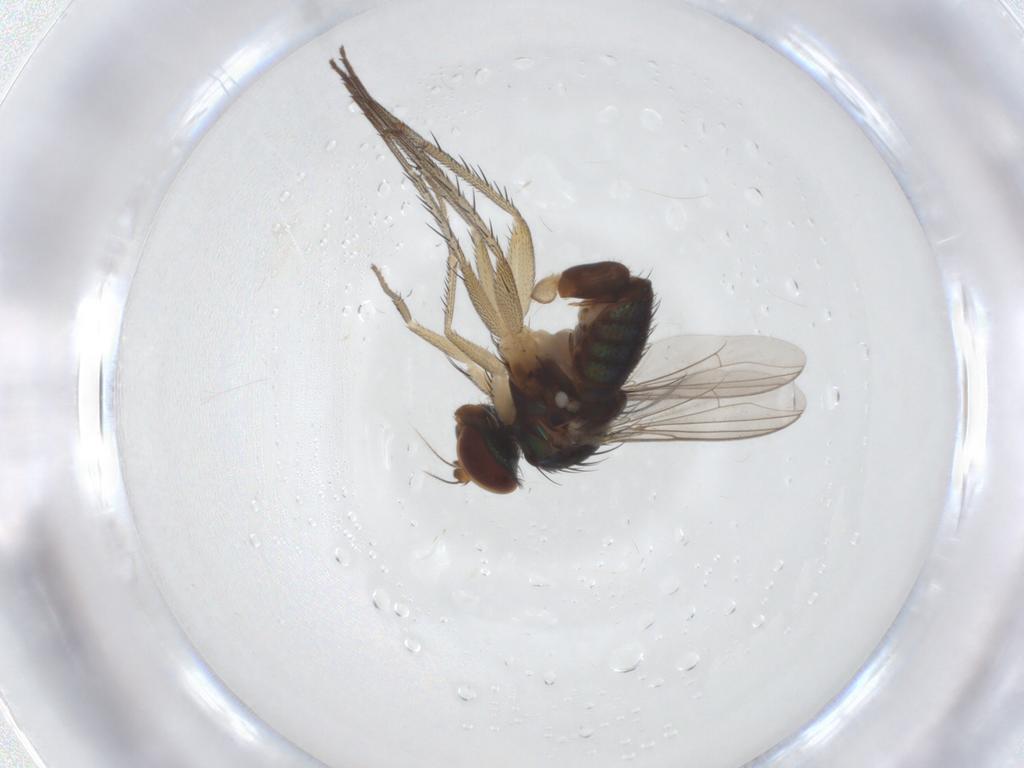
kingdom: Animalia
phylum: Arthropoda
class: Insecta
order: Diptera
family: Dolichopodidae
